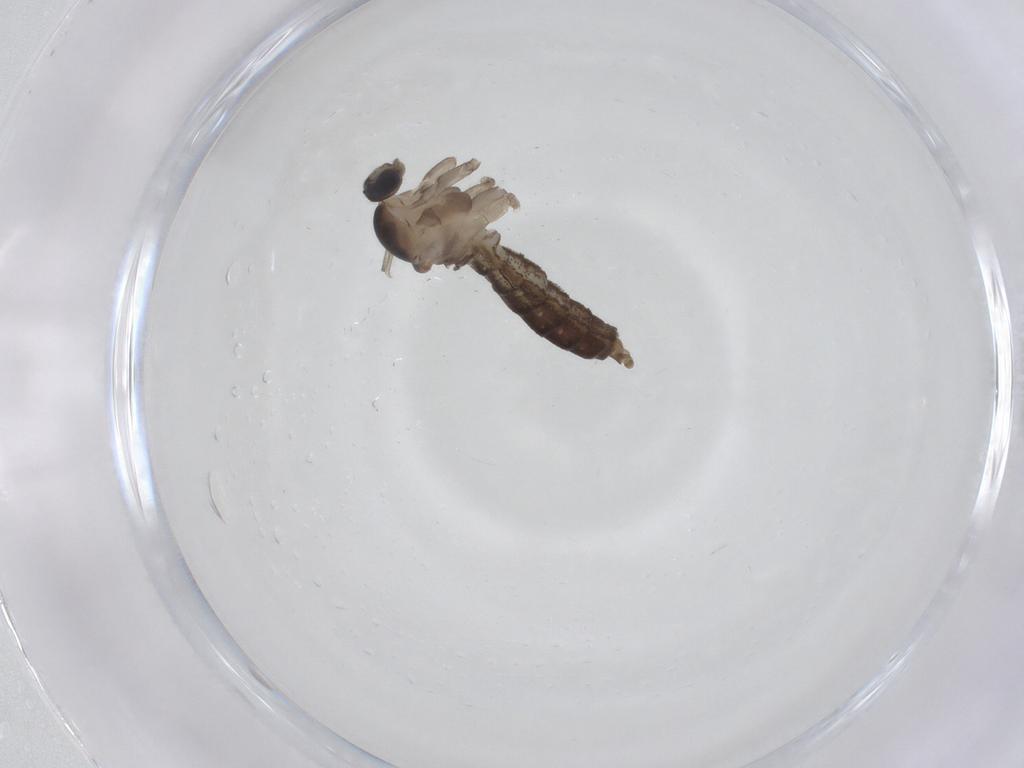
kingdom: Animalia
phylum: Arthropoda
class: Insecta
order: Diptera
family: Cecidomyiidae
